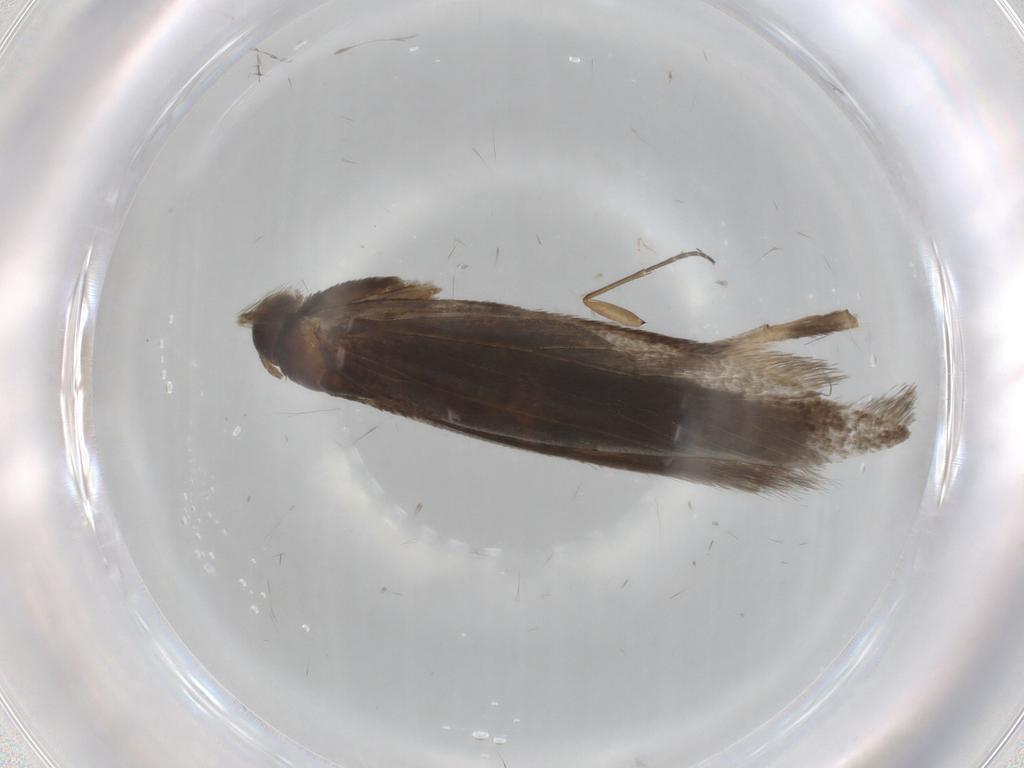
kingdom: Animalia
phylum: Arthropoda
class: Insecta
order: Lepidoptera
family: Gelechiidae
